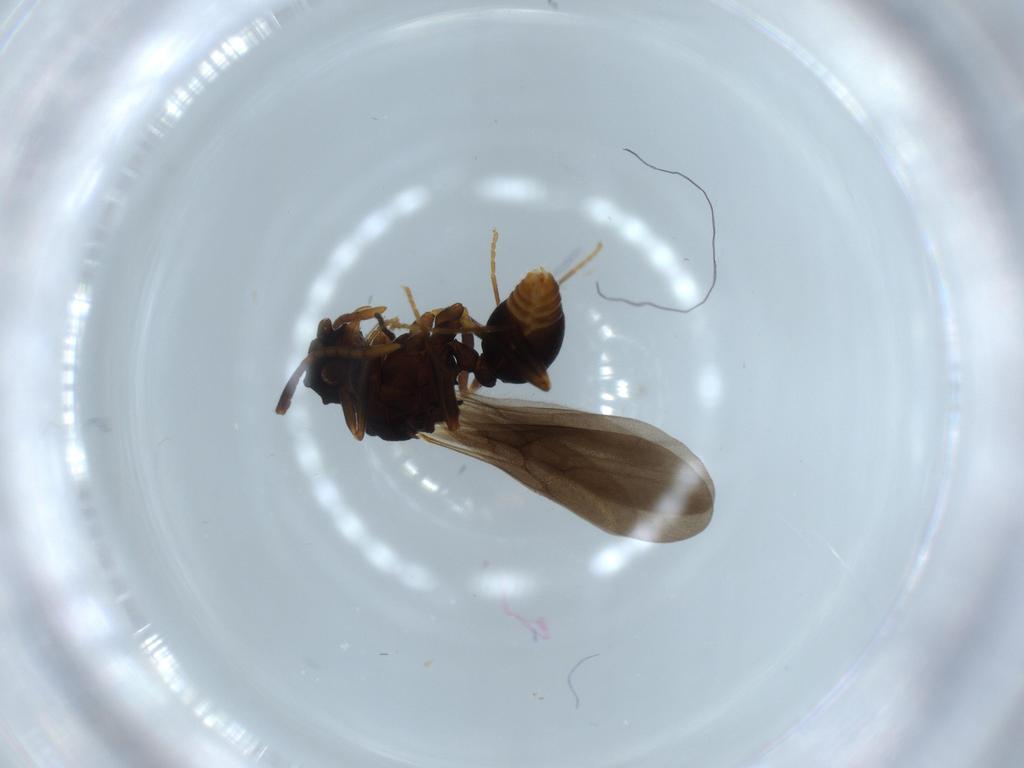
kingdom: Animalia
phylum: Arthropoda
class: Insecta
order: Hymenoptera
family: Formicidae
